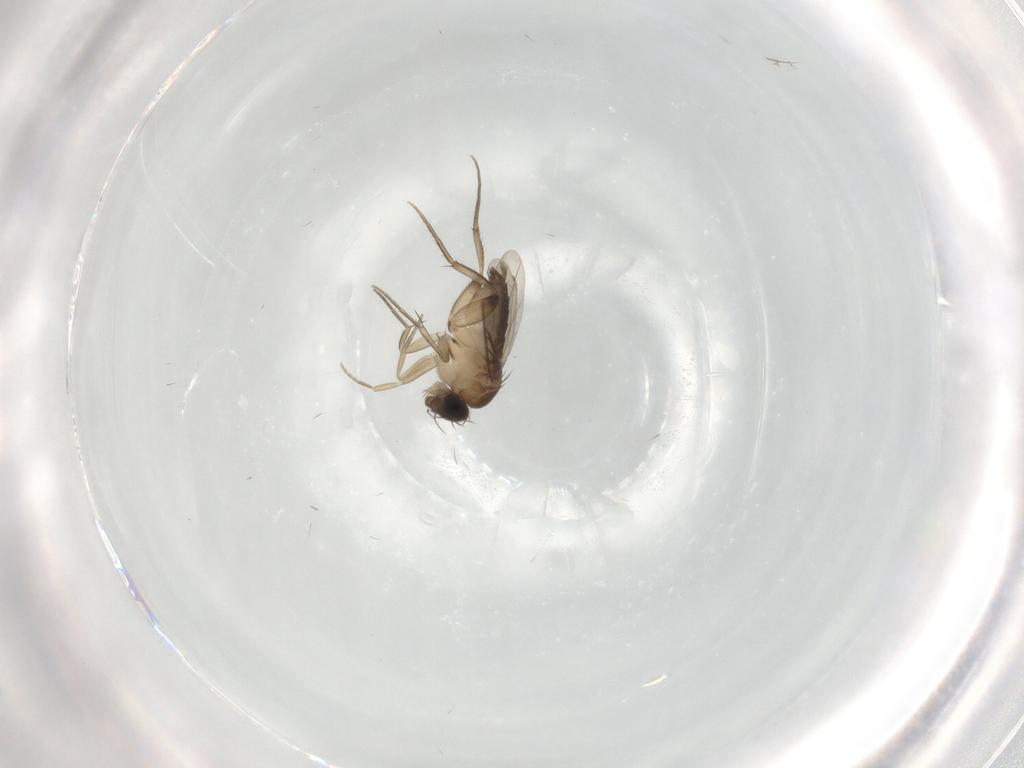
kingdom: Animalia
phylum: Arthropoda
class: Insecta
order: Diptera
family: Phoridae
